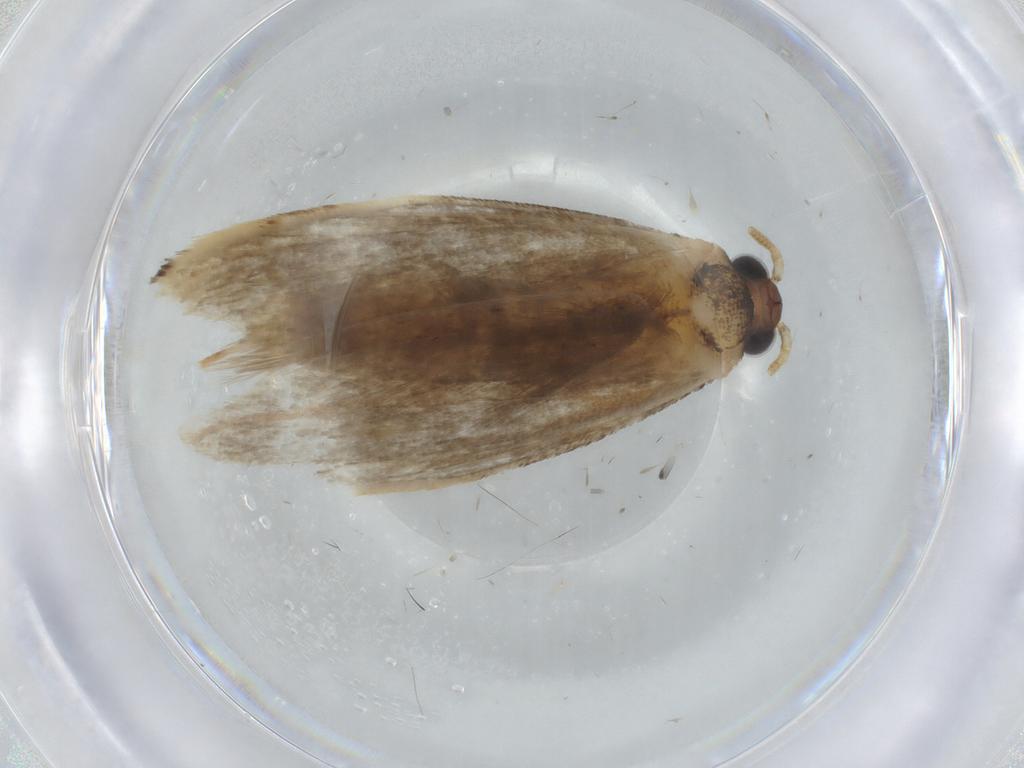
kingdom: Animalia
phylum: Arthropoda
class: Insecta
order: Lepidoptera
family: Tineidae
